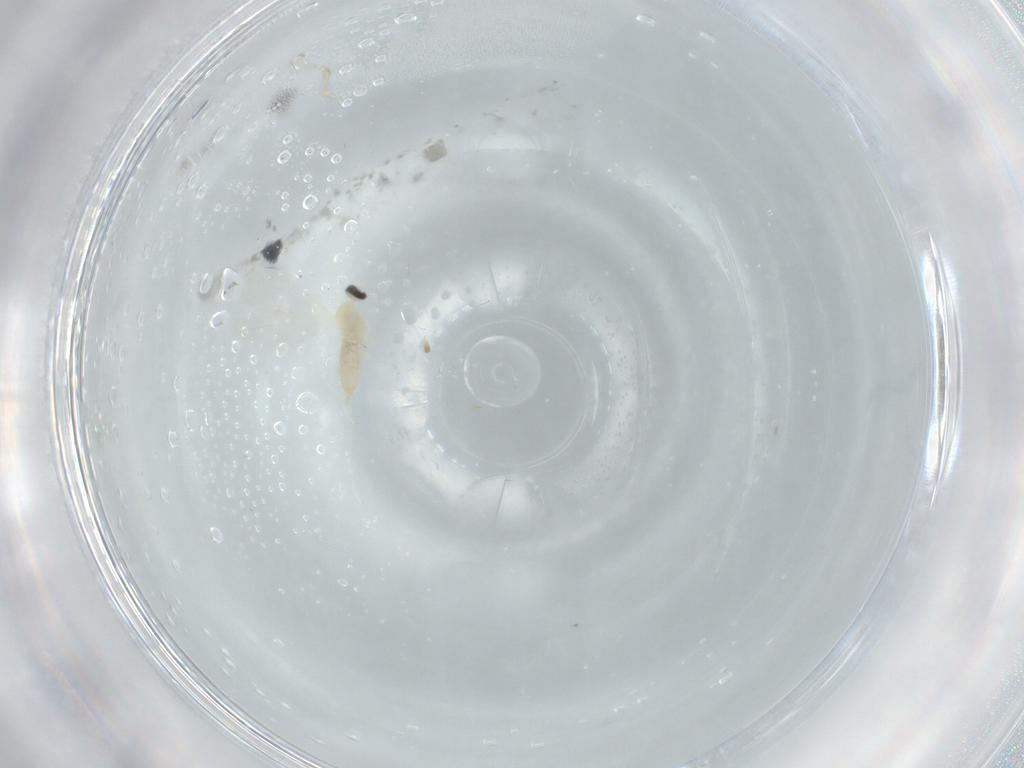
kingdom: Animalia
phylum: Arthropoda
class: Insecta
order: Diptera
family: Cecidomyiidae
